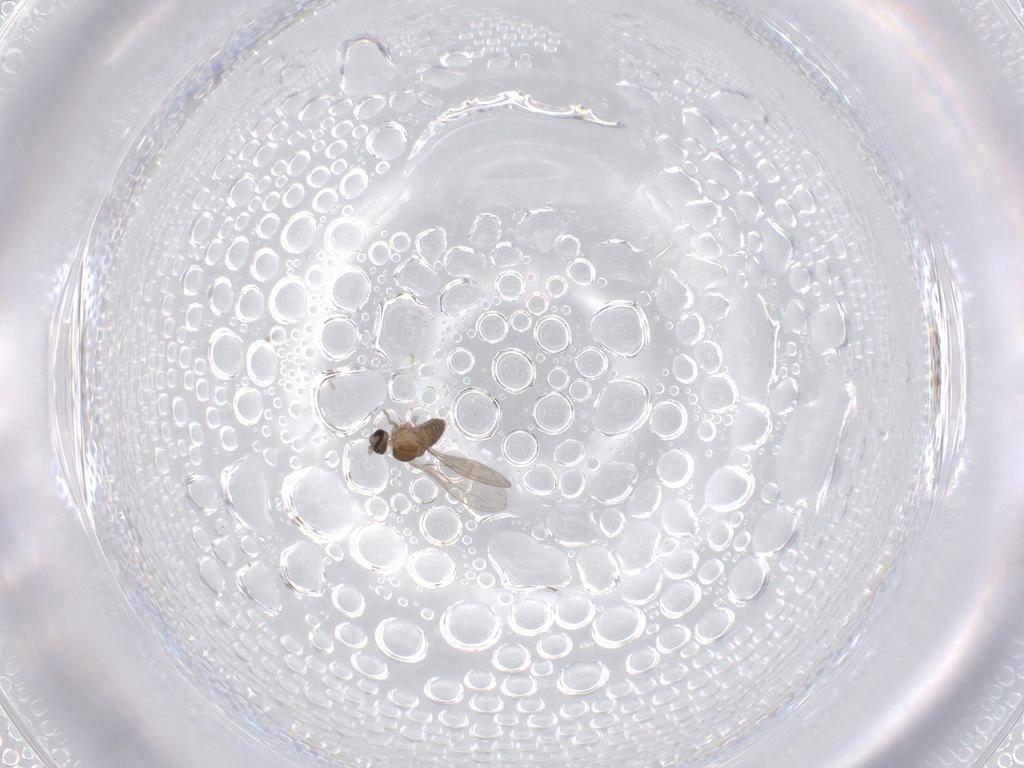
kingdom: Animalia
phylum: Arthropoda
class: Insecta
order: Diptera
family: Cecidomyiidae
